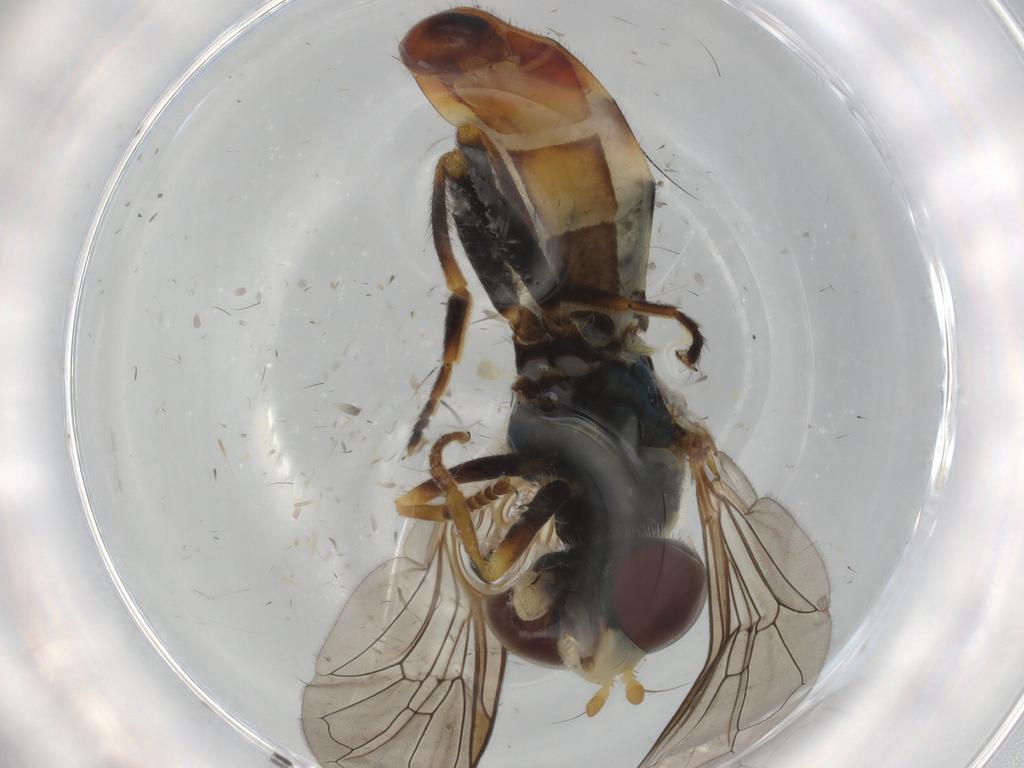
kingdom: Animalia
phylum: Arthropoda
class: Insecta
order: Diptera
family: Syrphidae
